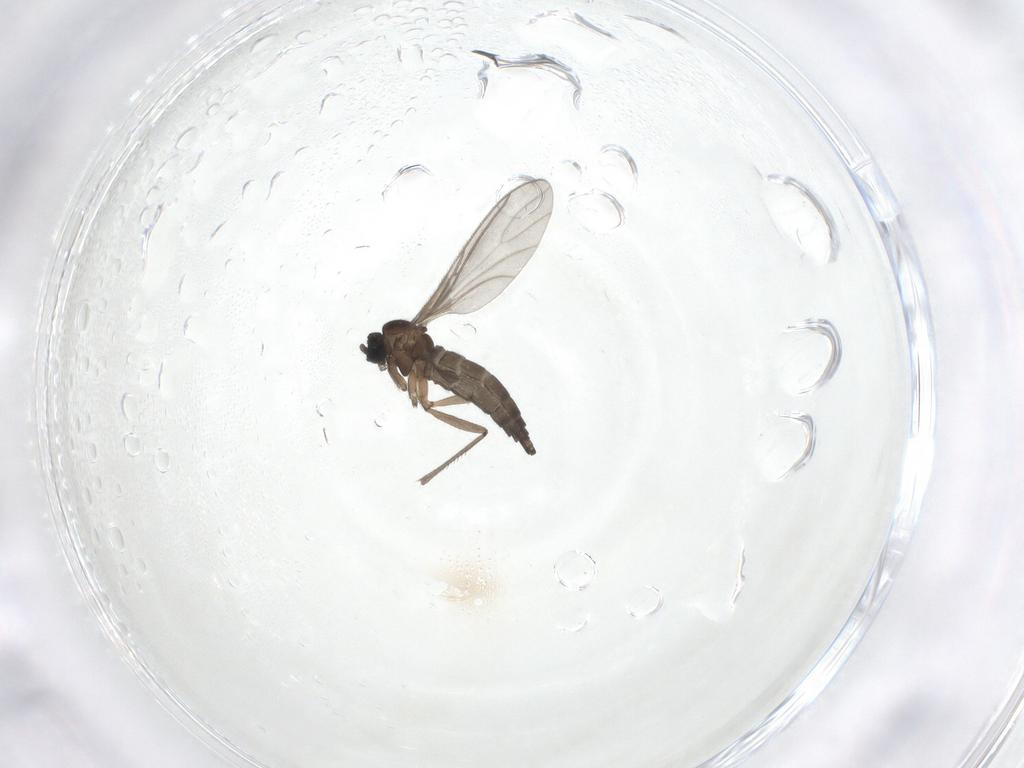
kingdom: Animalia
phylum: Arthropoda
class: Insecta
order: Diptera
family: Sciaridae
